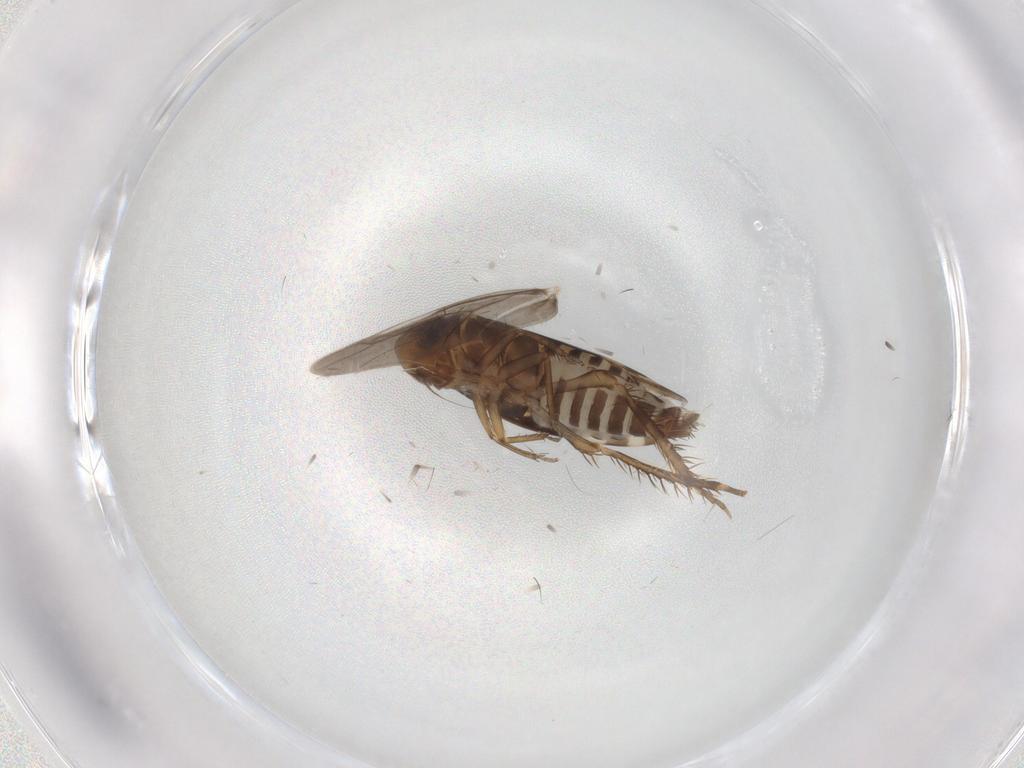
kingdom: Animalia
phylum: Arthropoda
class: Insecta
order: Hemiptera
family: Cicadellidae
